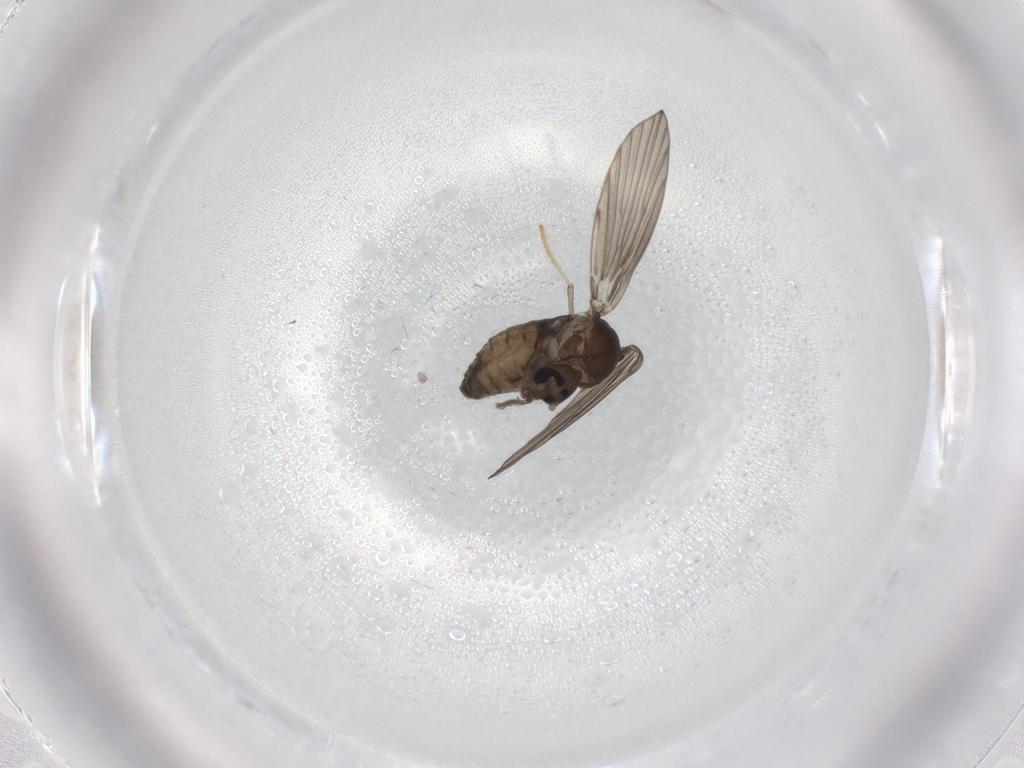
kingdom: Animalia
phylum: Arthropoda
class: Insecta
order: Diptera
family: Psychodidae
